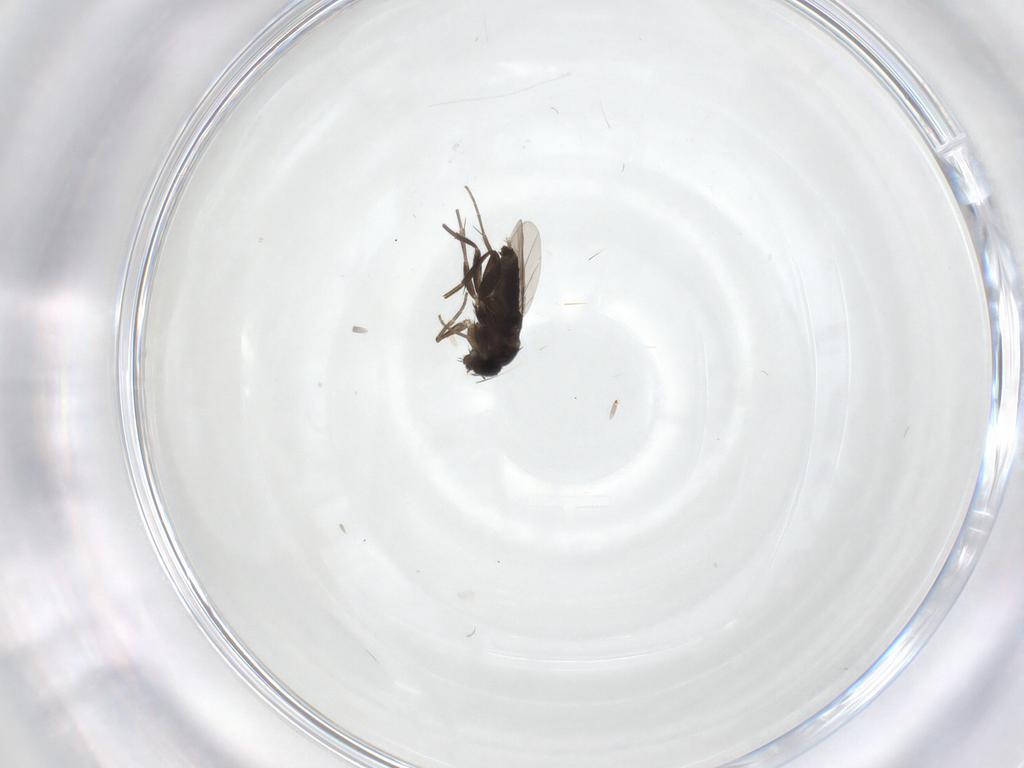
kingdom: Animalia
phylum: Arthropoda
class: Insecta
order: Diptera
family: Phoridae
